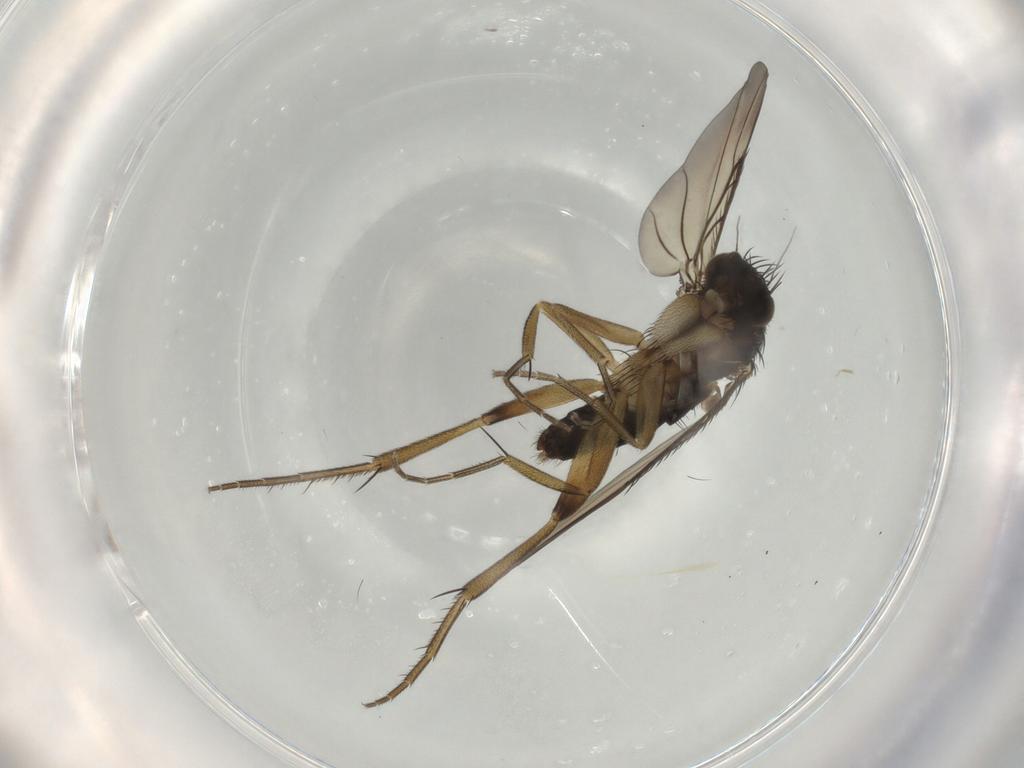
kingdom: Animalia
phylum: Arthropoda
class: Insecta
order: Diptera
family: Phoridae
